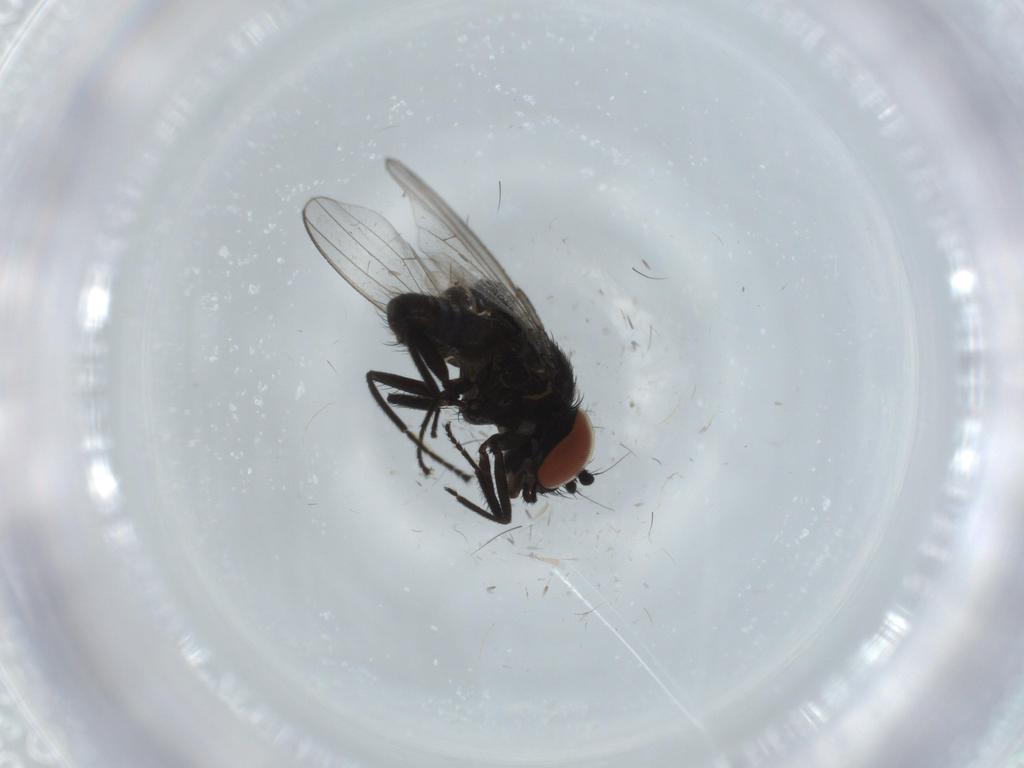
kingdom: Animalia
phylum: Arthropoda
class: Insecta
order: Diptera
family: Milichiidae
